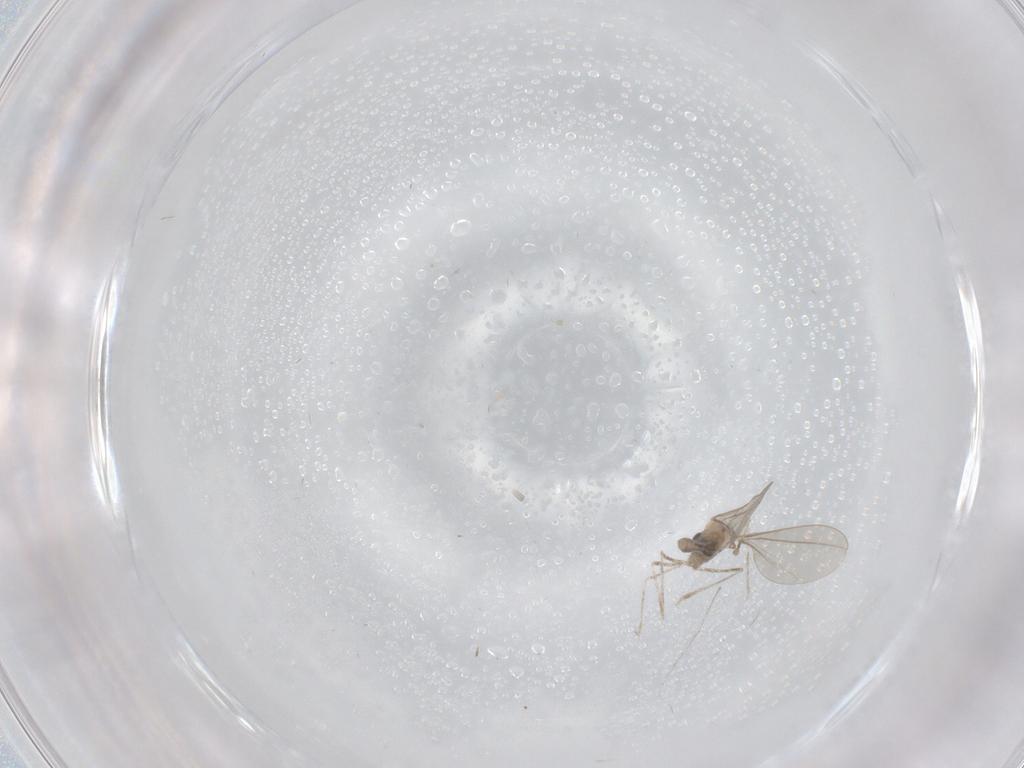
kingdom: Animalia
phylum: Arthropoda
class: Insecta
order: Diptera
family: Cecidomyiidae
